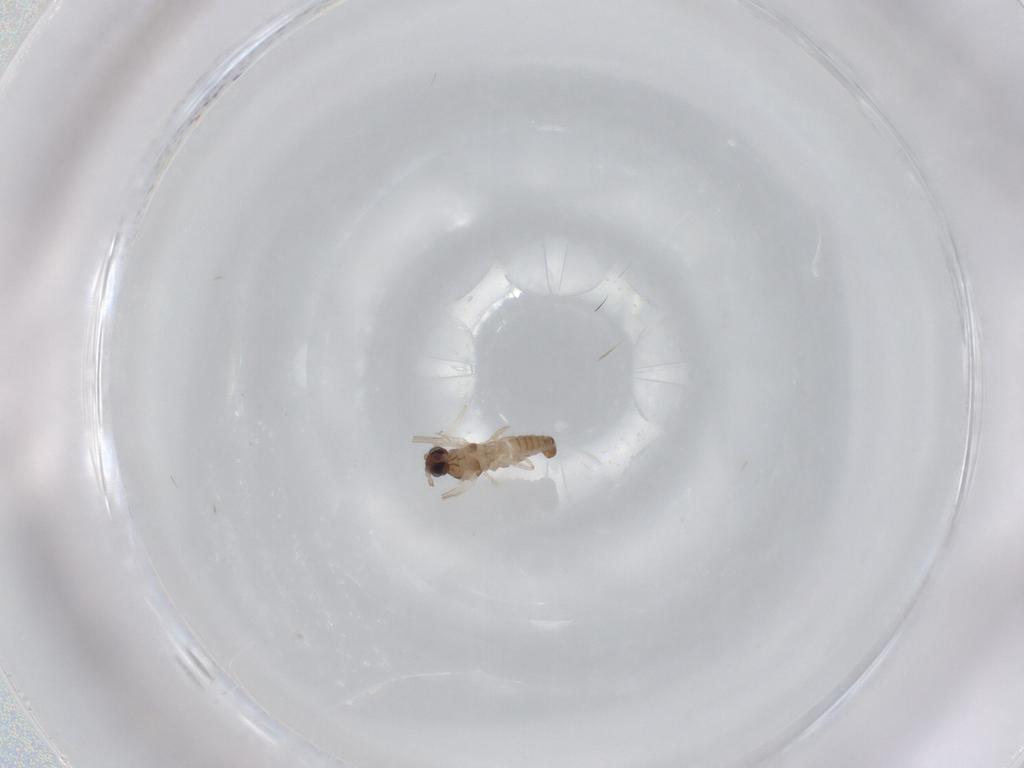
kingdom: Animalia
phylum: Arthropoda
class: Insecta
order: Diptera
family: Cecidomyiidae
